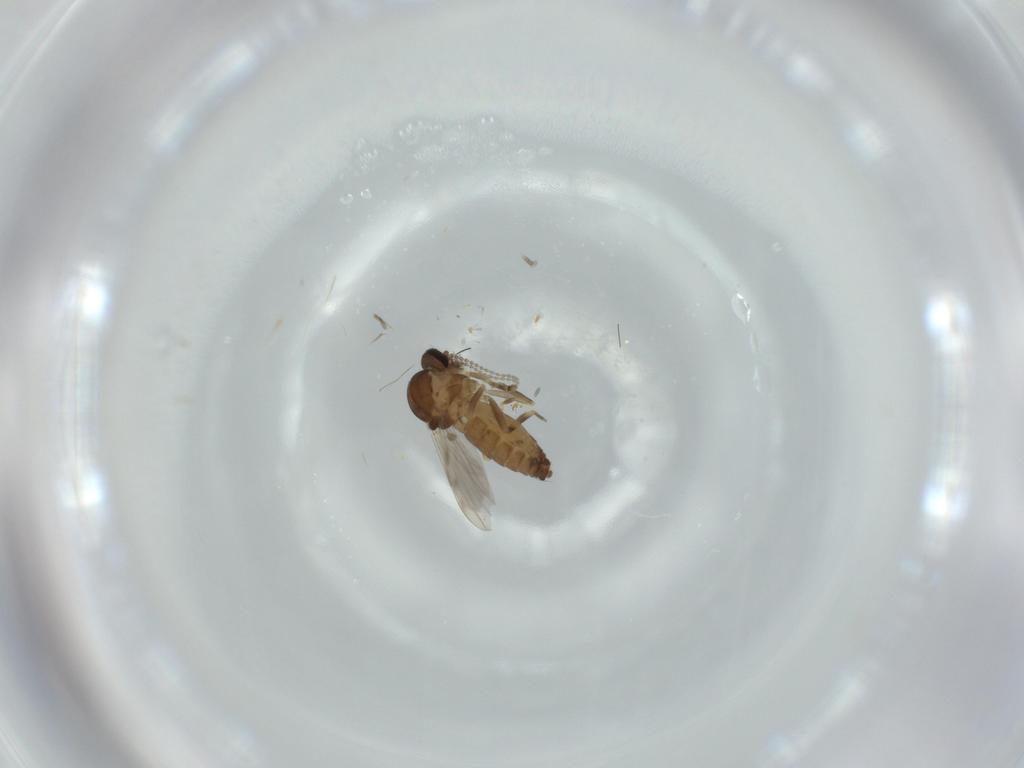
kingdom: Animalia
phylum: Arthropoda
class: Insecta
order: Diptera
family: Ceratopogonidae
